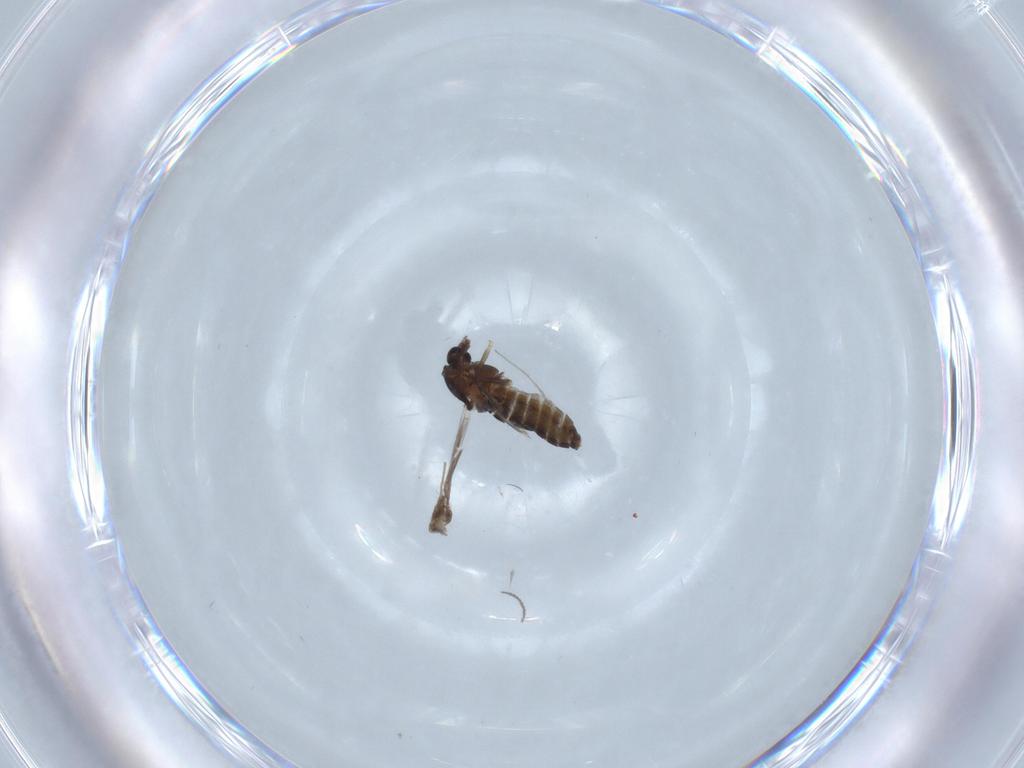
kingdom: Animalia
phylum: Arthropoda
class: Insecta
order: Diptera
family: Chironomidae
